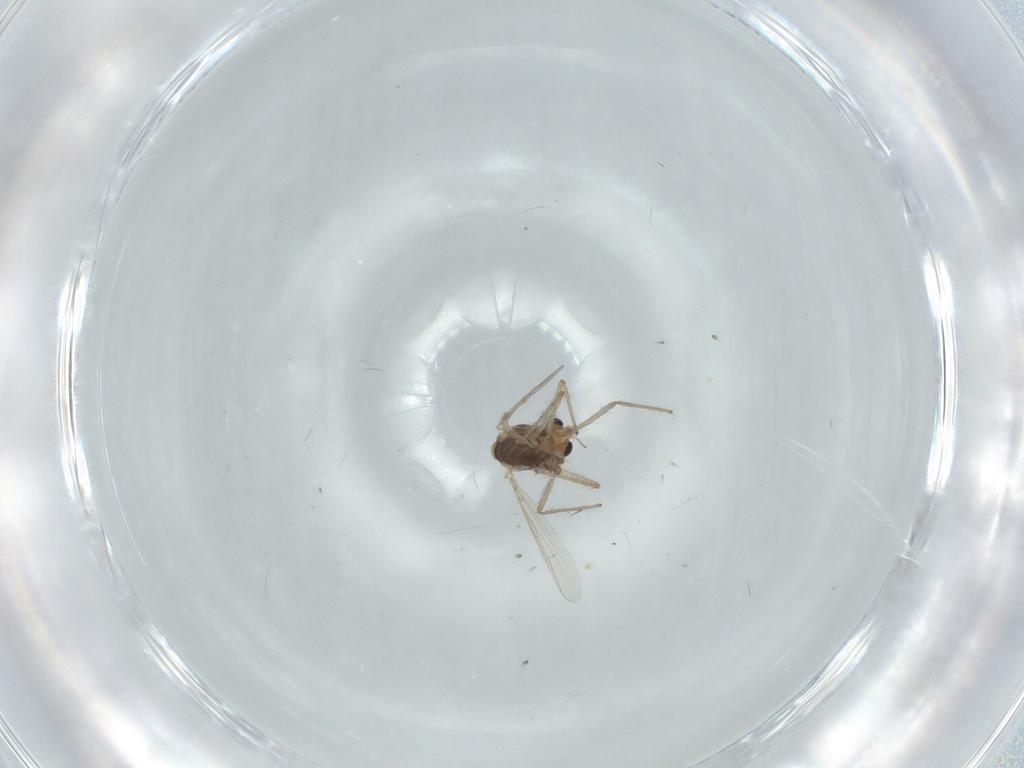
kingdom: Animalia
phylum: Arthropoda
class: Insecta
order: Diptera
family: Chironomidae
